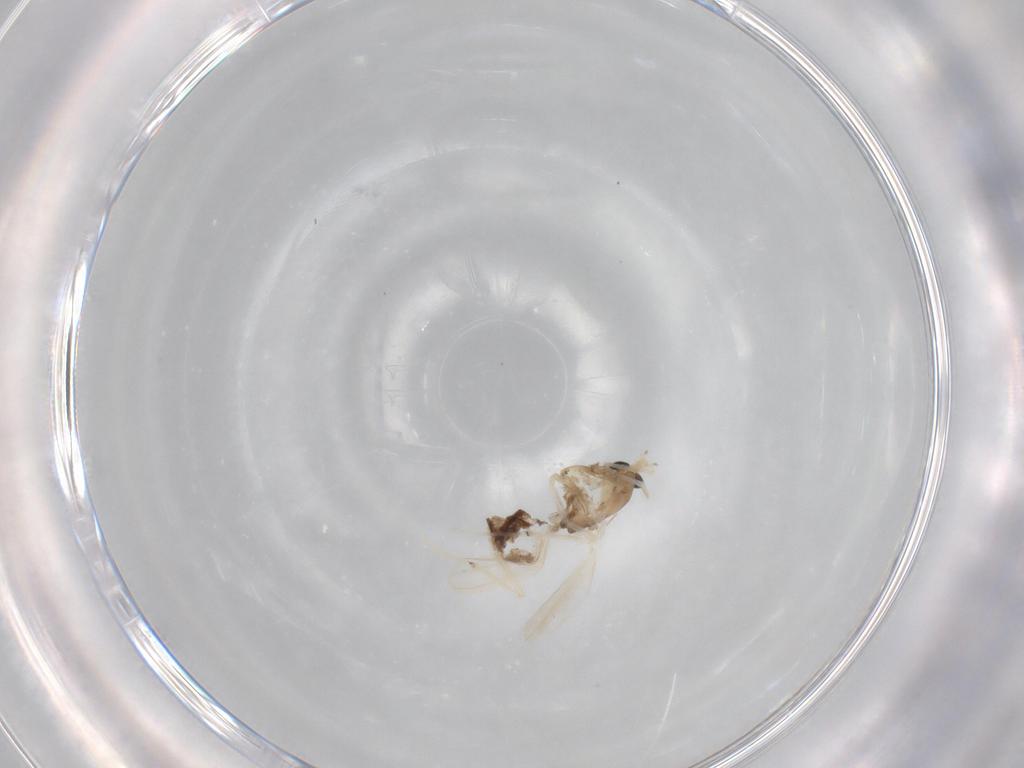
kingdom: Animalia
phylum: Arthropoda
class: Insecta
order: Diptera
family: Chironomidae
